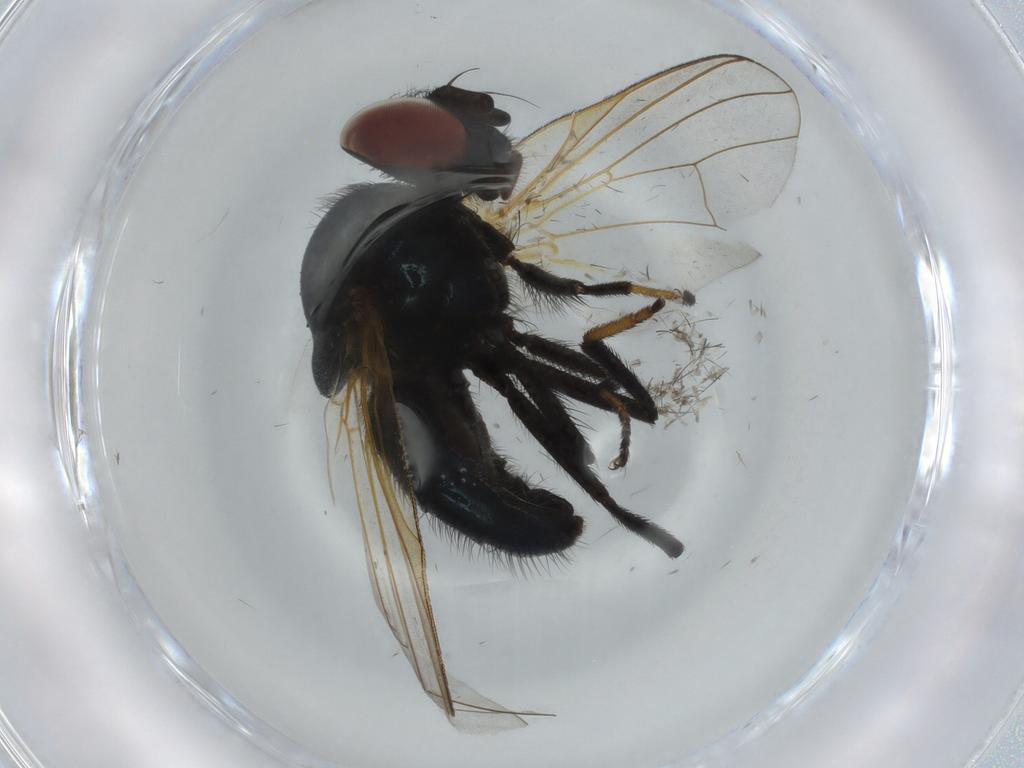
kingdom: Animalia
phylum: Arthropoda
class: Insecta
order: Diptera
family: Lonchaeidae
